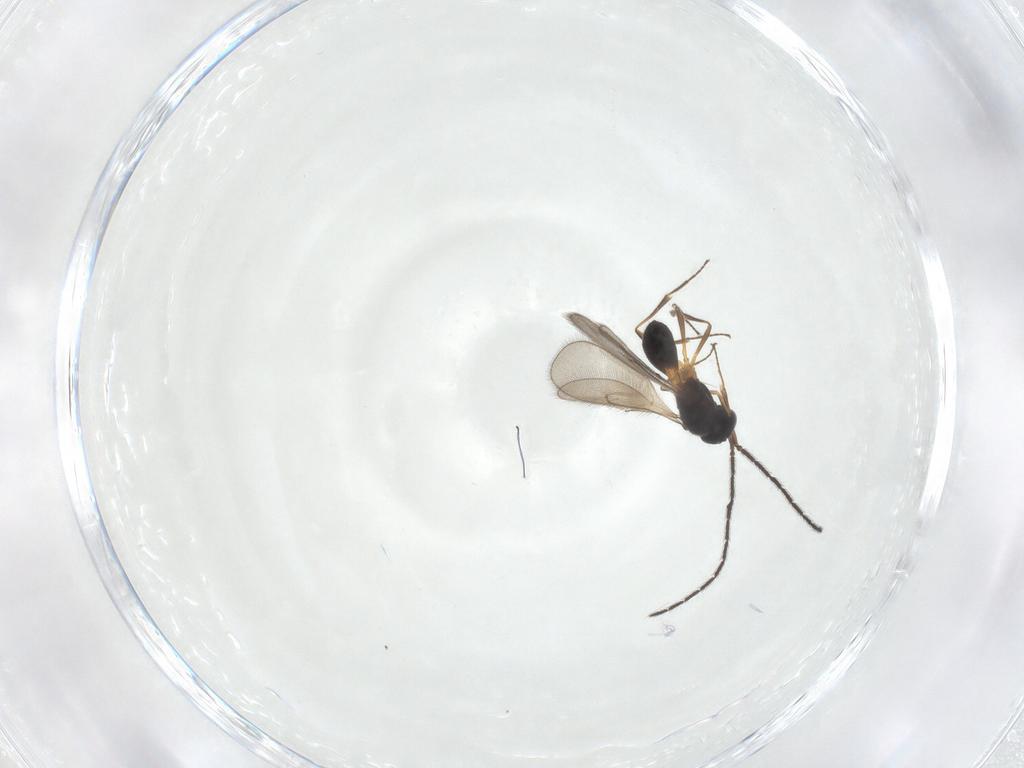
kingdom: Animalia
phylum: Arthropoda
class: Insecta
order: Hymenoptera
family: Scelionidae
